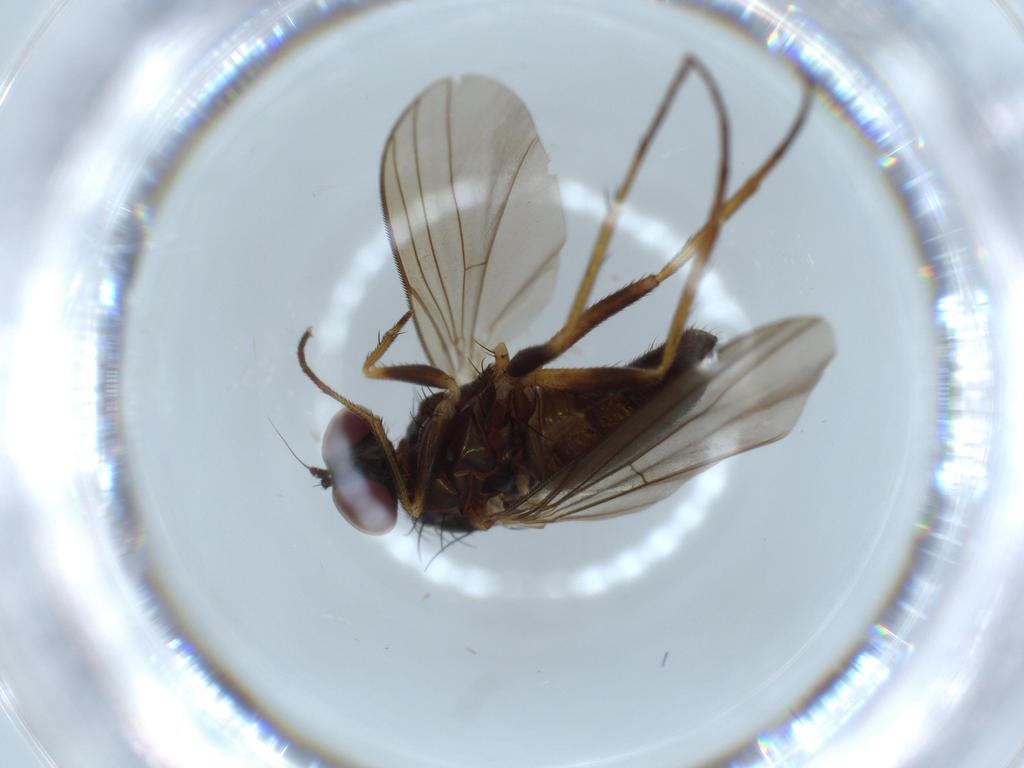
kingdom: Animalia
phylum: Arthropoda
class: Insecta
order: Diptera
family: Dolichopodidae
